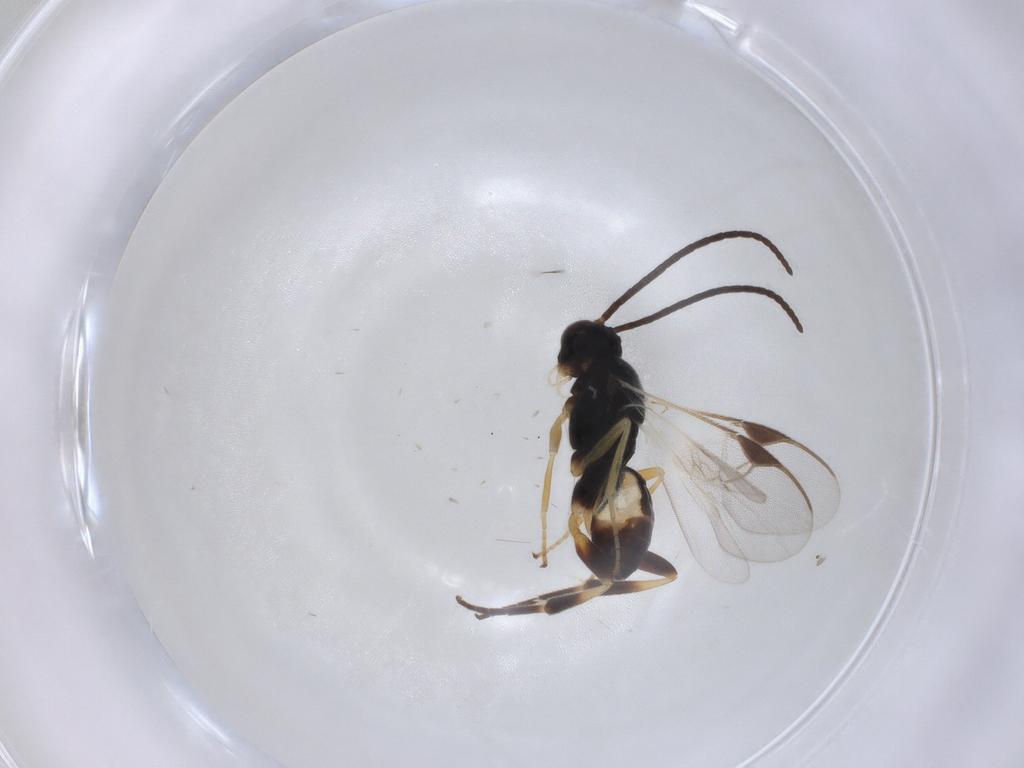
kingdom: Animalia
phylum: Arthropoda
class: Insecta
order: Hymenoptera
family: Braconidae
